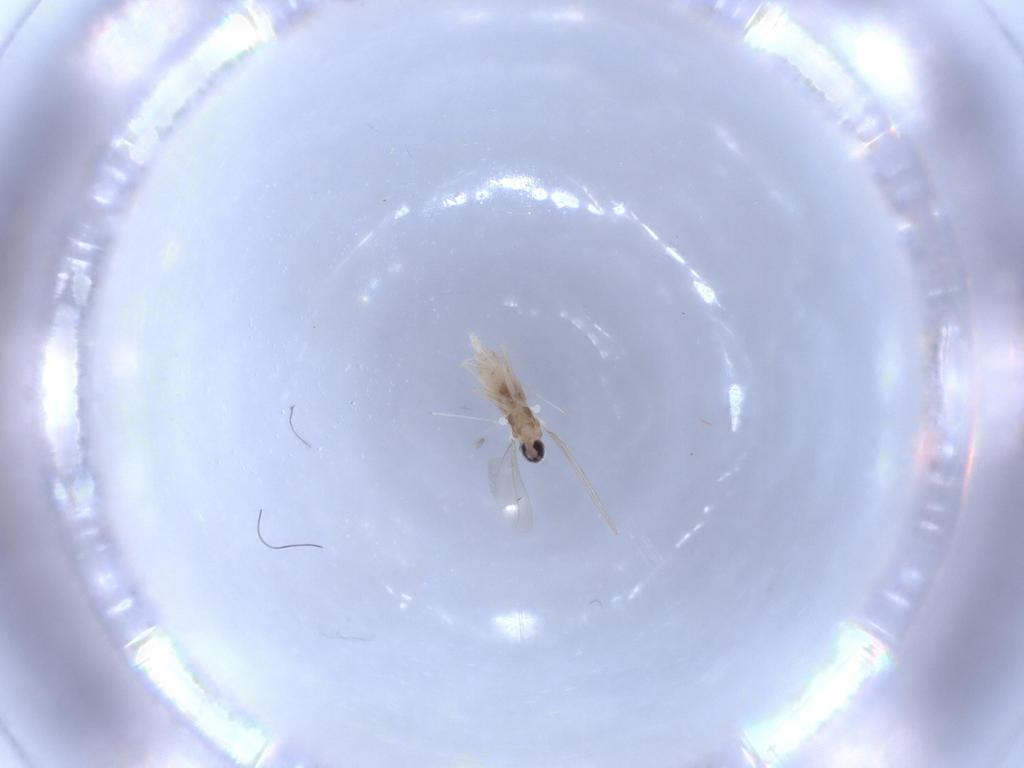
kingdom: Animalia
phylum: Arthropoda
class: Insecta
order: Diptera
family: Cecidomyiidae
